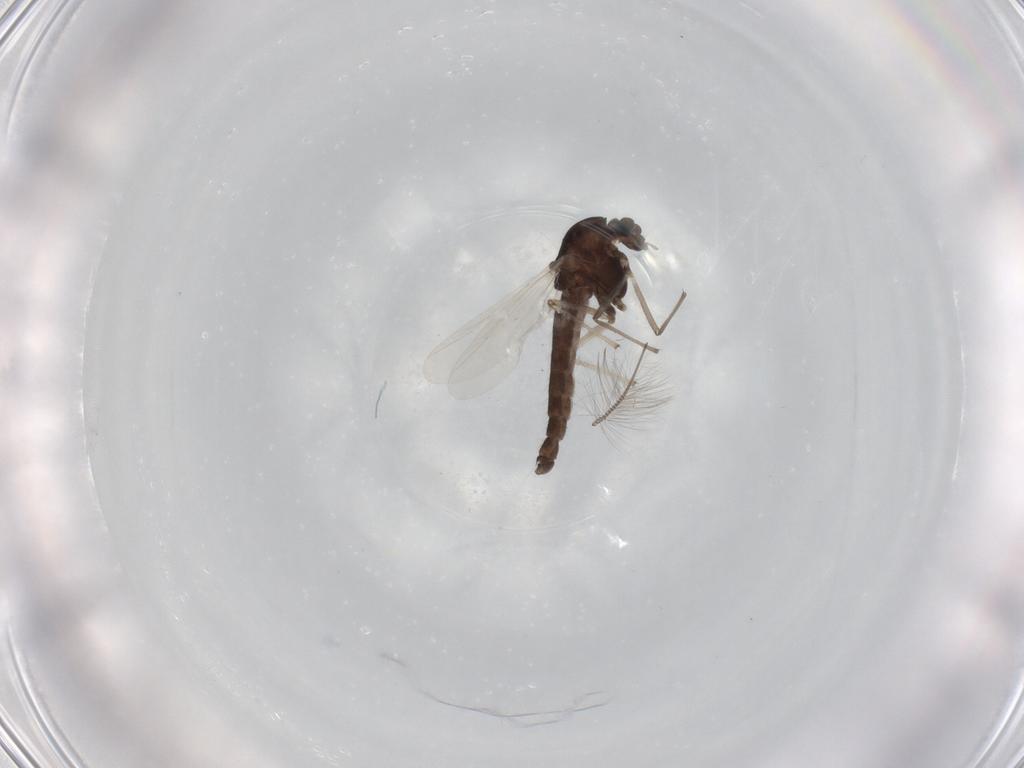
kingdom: Animalia
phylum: Arthropoda
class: Insecta
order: Diptera
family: Chironomidae
